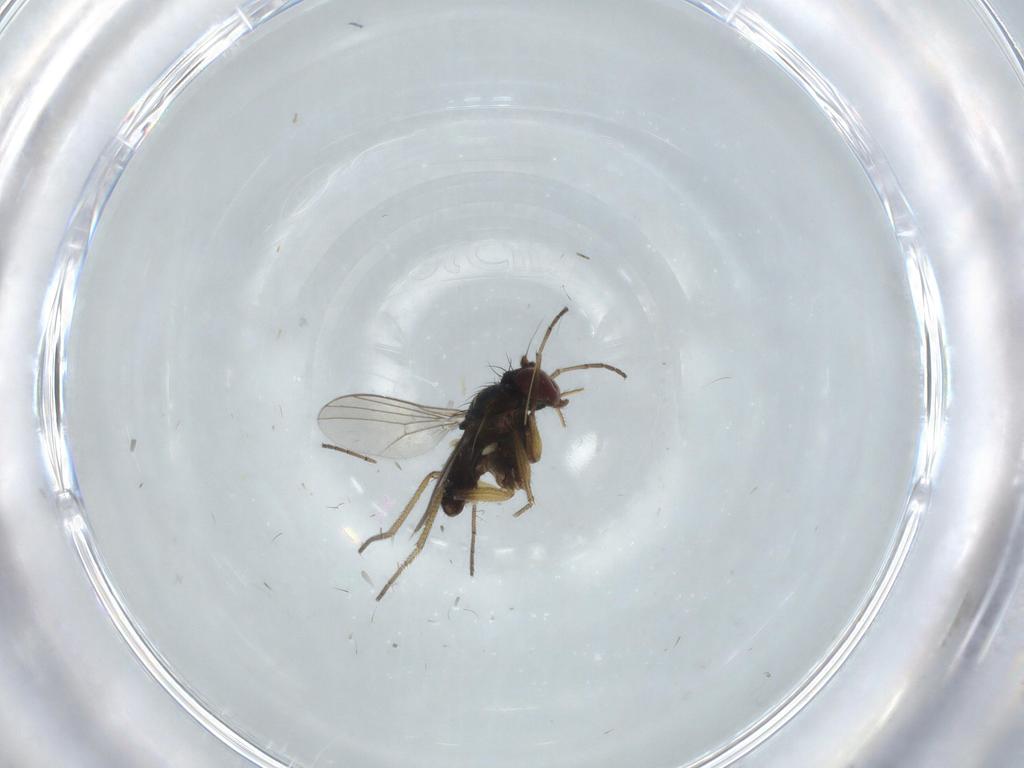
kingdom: Animalia
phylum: Arthropoda
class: Insecta
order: Diptera
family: Dolichopodidae
